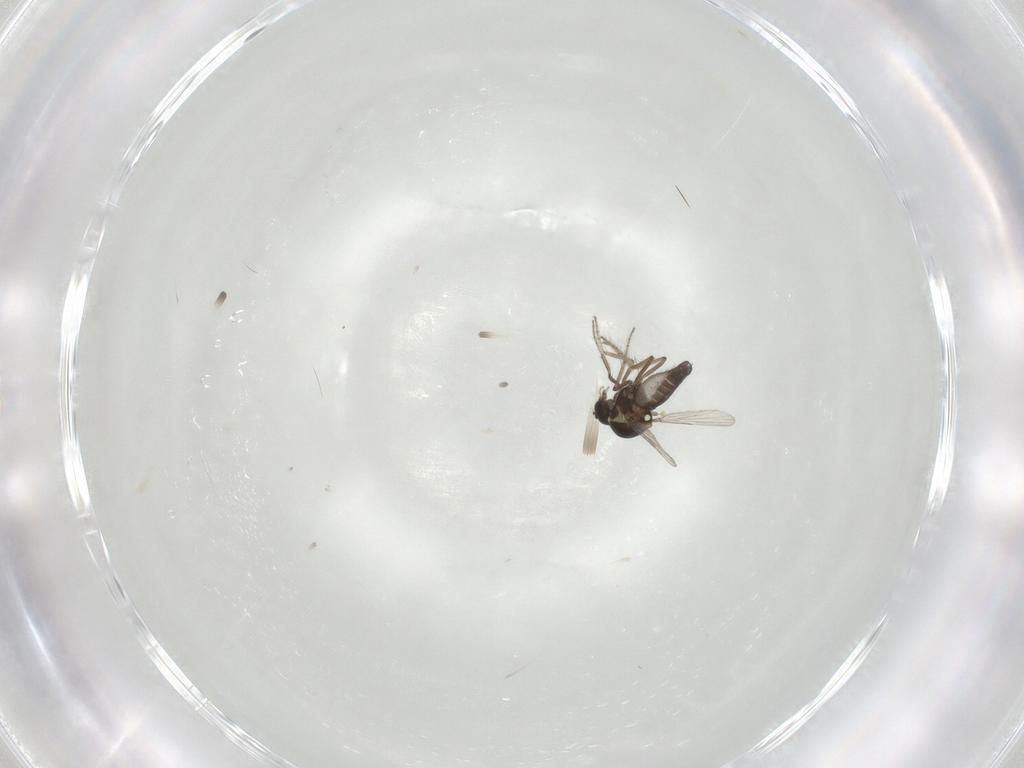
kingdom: Animalia
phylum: Arthropoda
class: Insecta
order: Diptera
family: Ceratopogonidae
